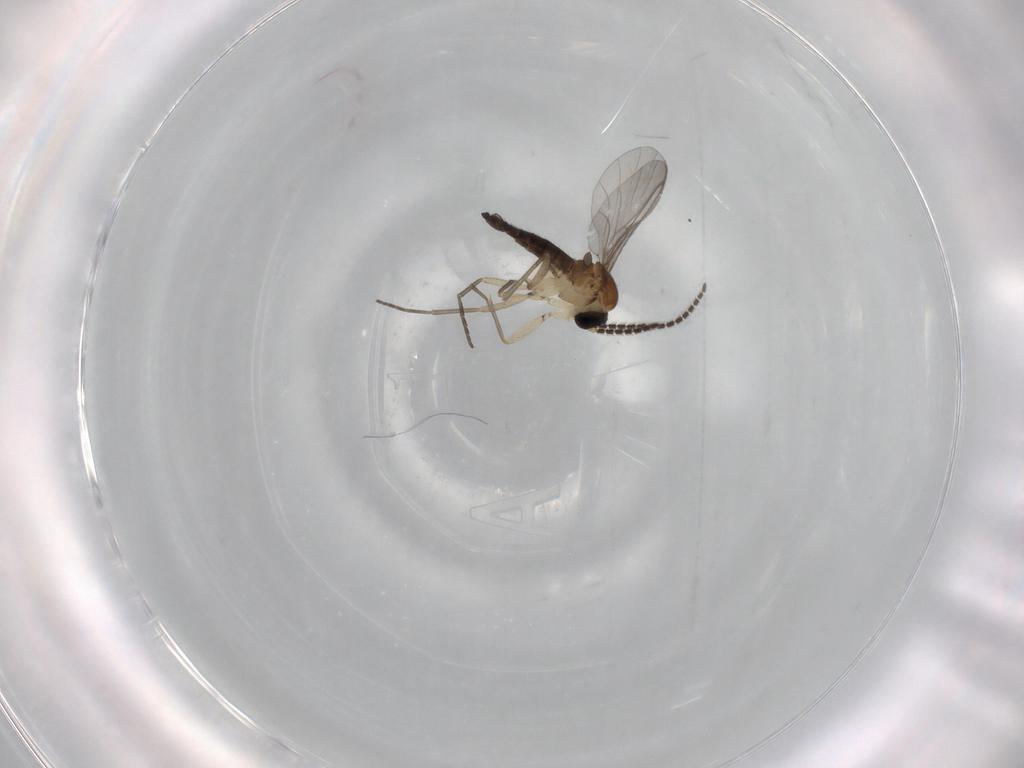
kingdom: Animalia
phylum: Arthropoda
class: Insecta
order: Diptera
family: Sciaridae
